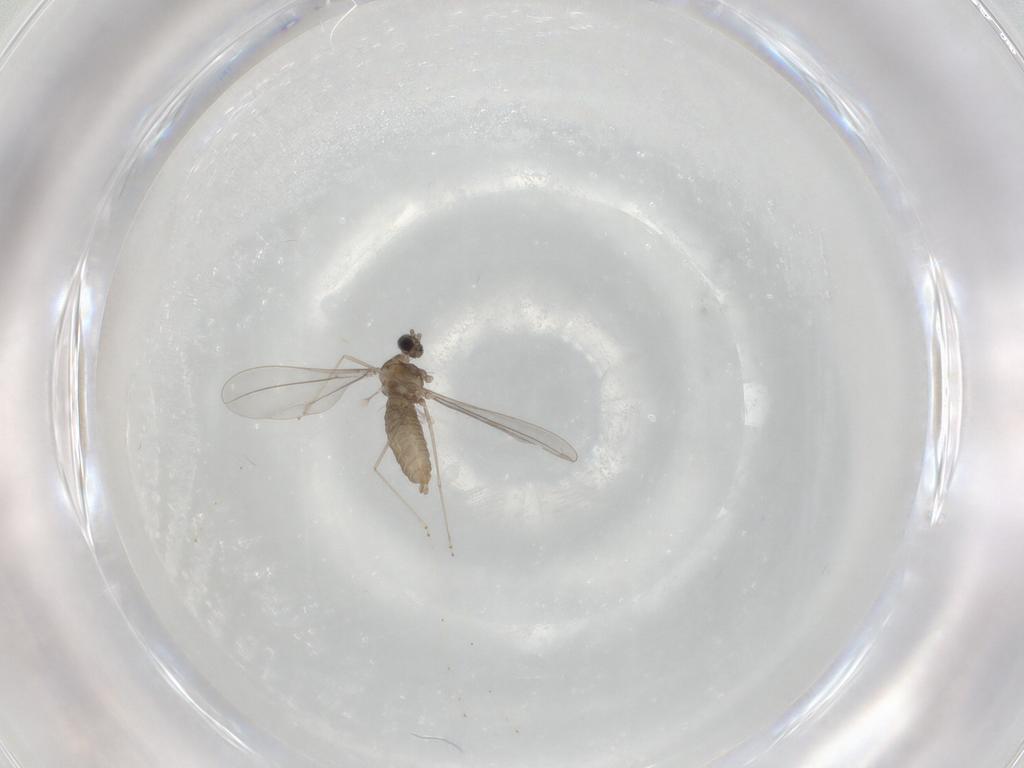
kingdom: Animalia
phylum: Arthropoda
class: Insecta
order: Diptera
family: Cecidomyiidae
